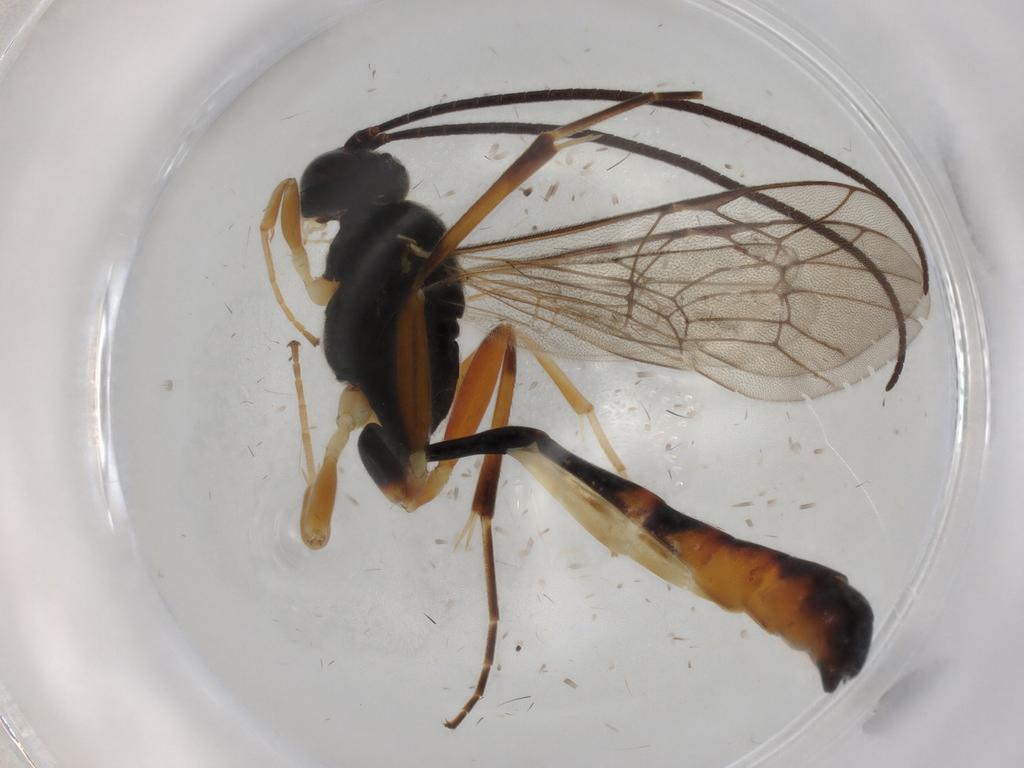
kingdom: Animalia
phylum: Arthropoda
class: Insecta
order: Hymenoptera
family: Ichneumonidae
